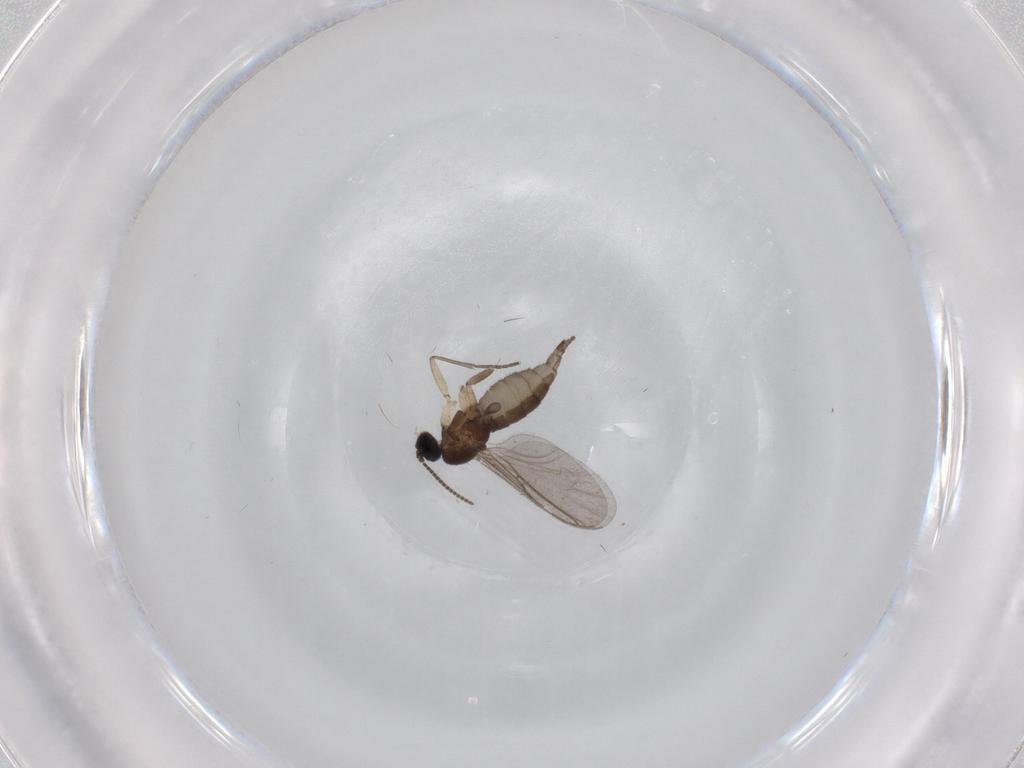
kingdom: Animalia
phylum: Arthropoda
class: Insecta
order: Diptera
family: Sciaridae
